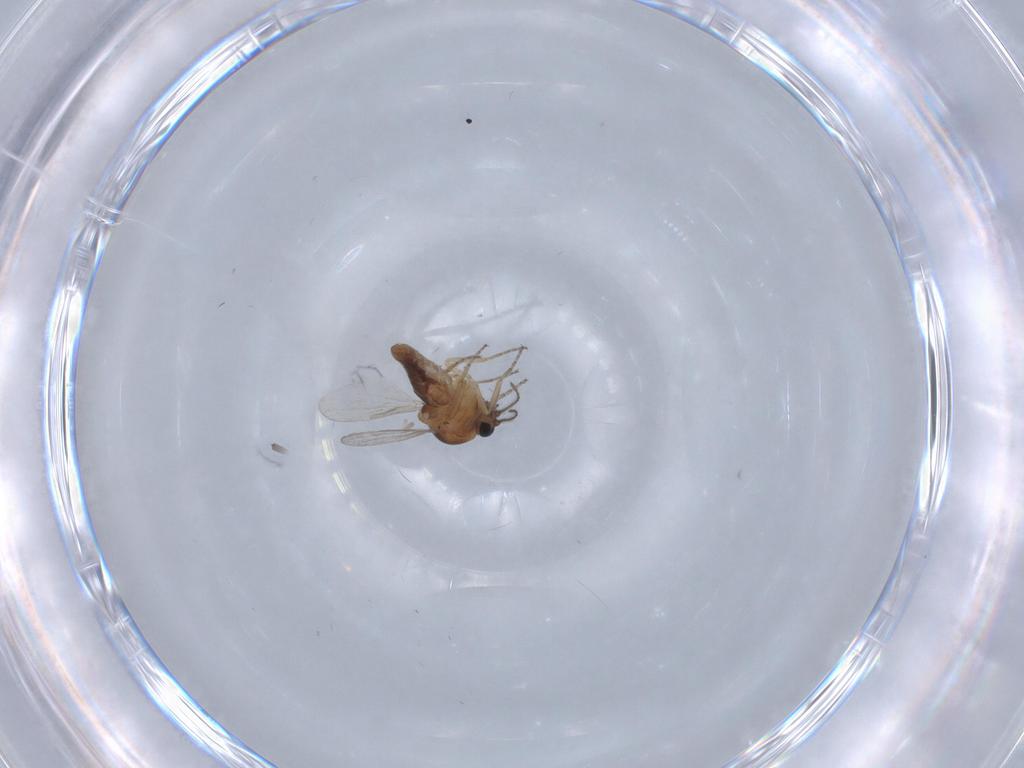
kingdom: Animalia
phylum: Arthropoda
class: Insecta
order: Diptera
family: Ceratopogonidae
